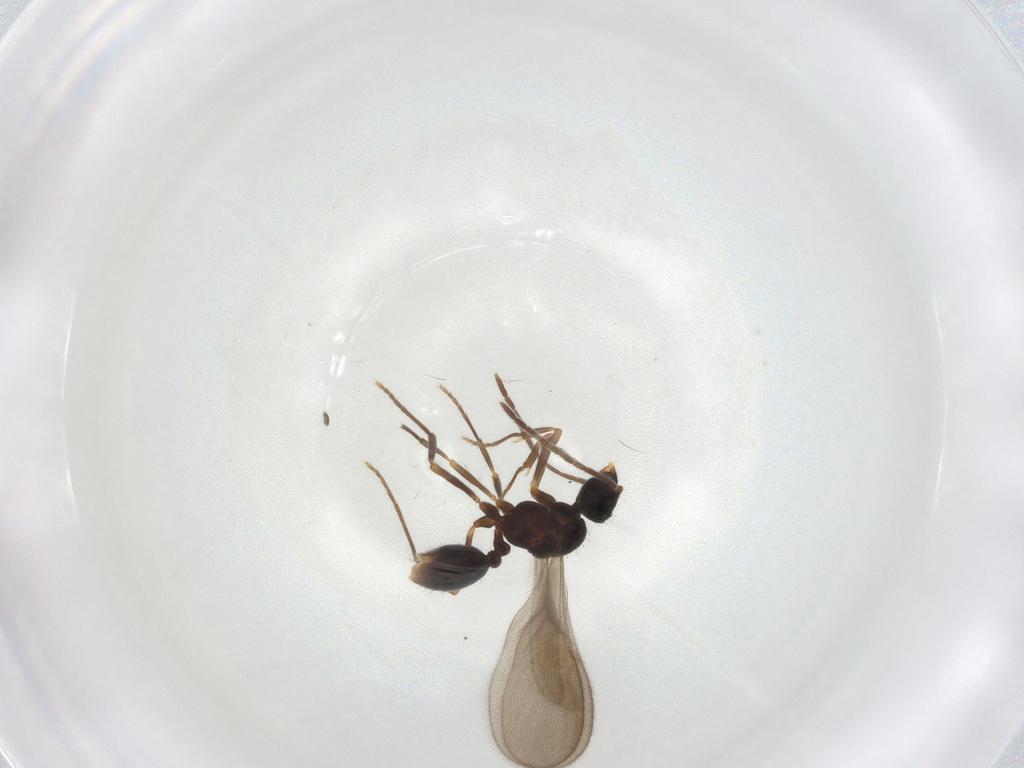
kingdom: Animalia
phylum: Arthropoda
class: Insecta
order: Hymenoptera
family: Formicidae
